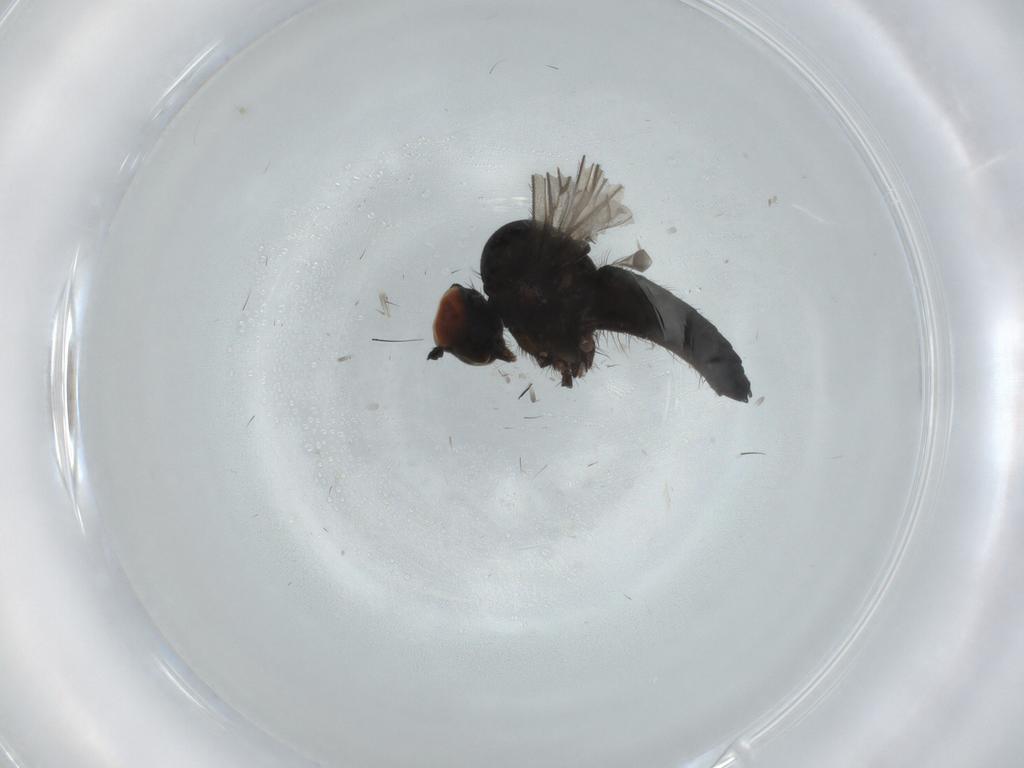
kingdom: Animalia
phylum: Arthropoda
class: Insecta
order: Diptera
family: Hybotidae
